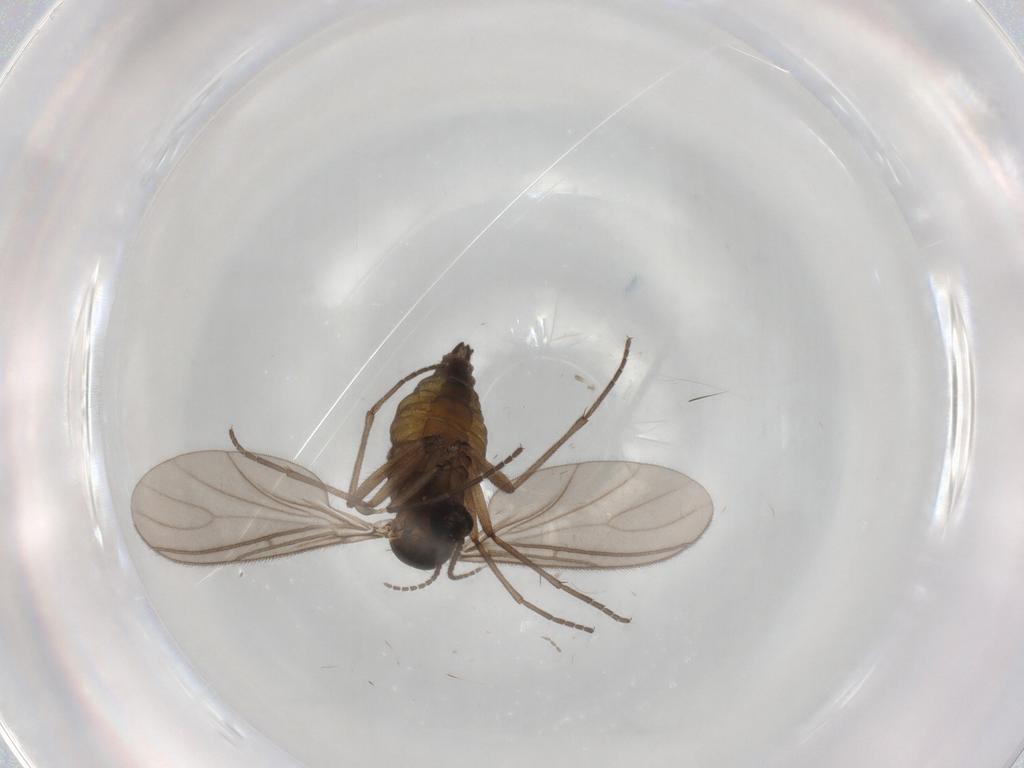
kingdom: Animalia
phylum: Arthropoda
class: Insecta
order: Diptera
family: Sciaridae
